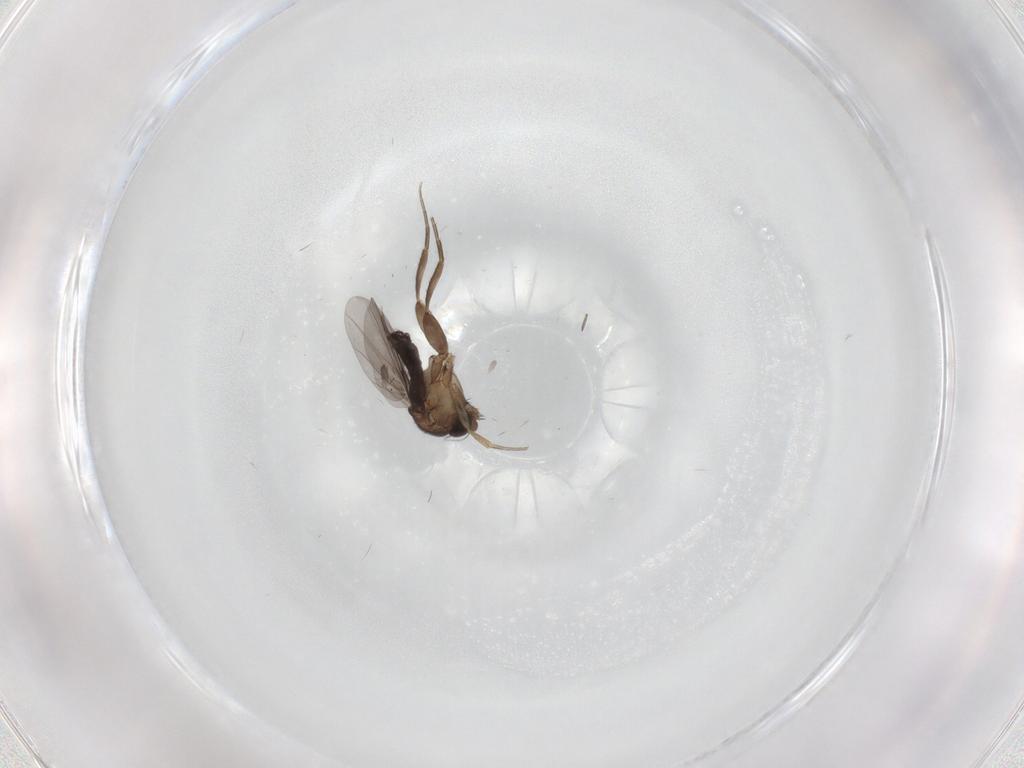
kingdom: Animalia
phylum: Arthropoda
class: Insecta
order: Diptera
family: Phoridae
